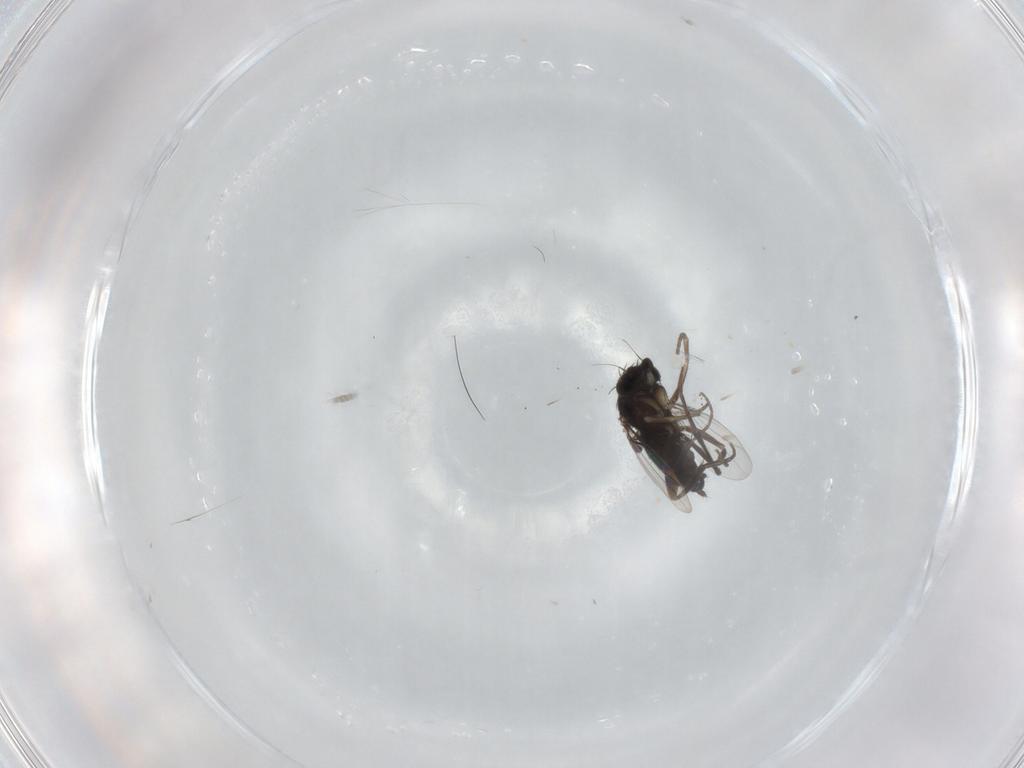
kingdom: Animalia
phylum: Arthropoda
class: Insecta
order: Diptera
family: Phoridae
